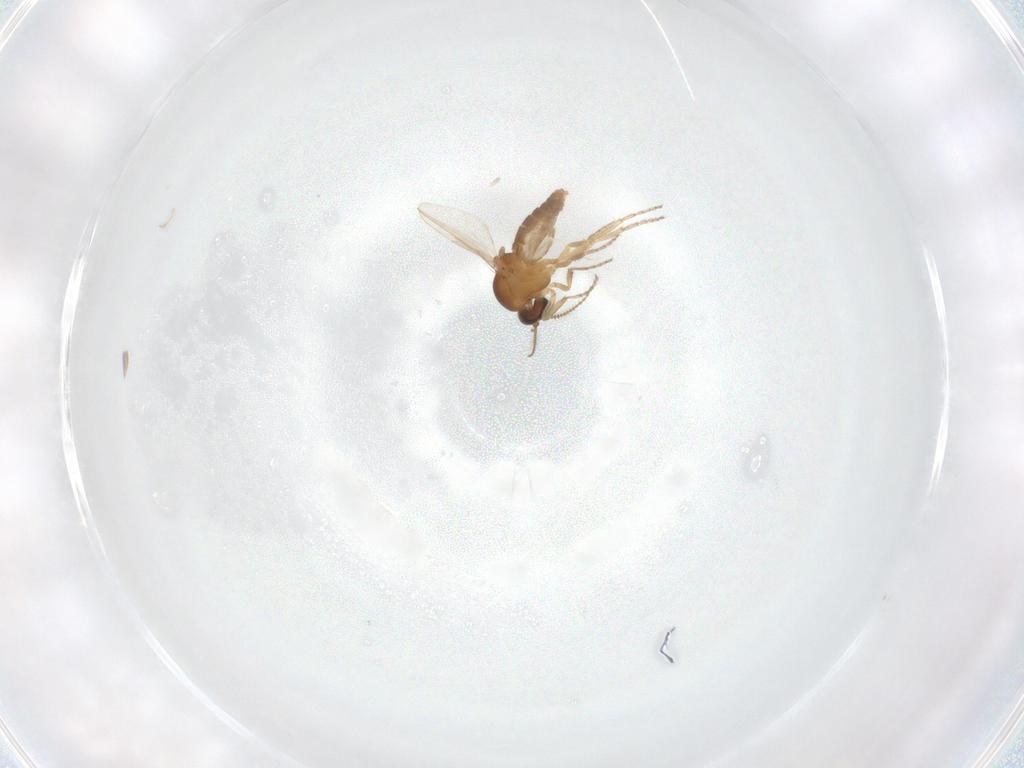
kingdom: Animalia
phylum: Arthropoda
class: Insecta
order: Diptera
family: Ceratopogonidae
